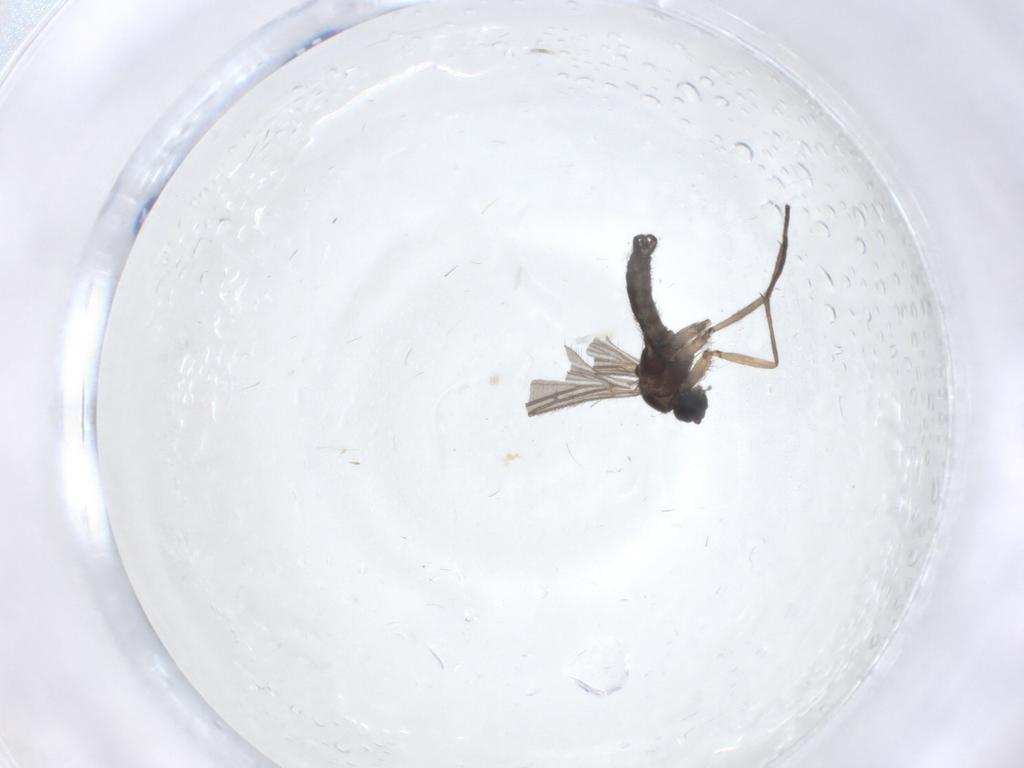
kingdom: Animalia
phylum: Arthropoda
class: Insecta
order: Diptera
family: Sciaridae
